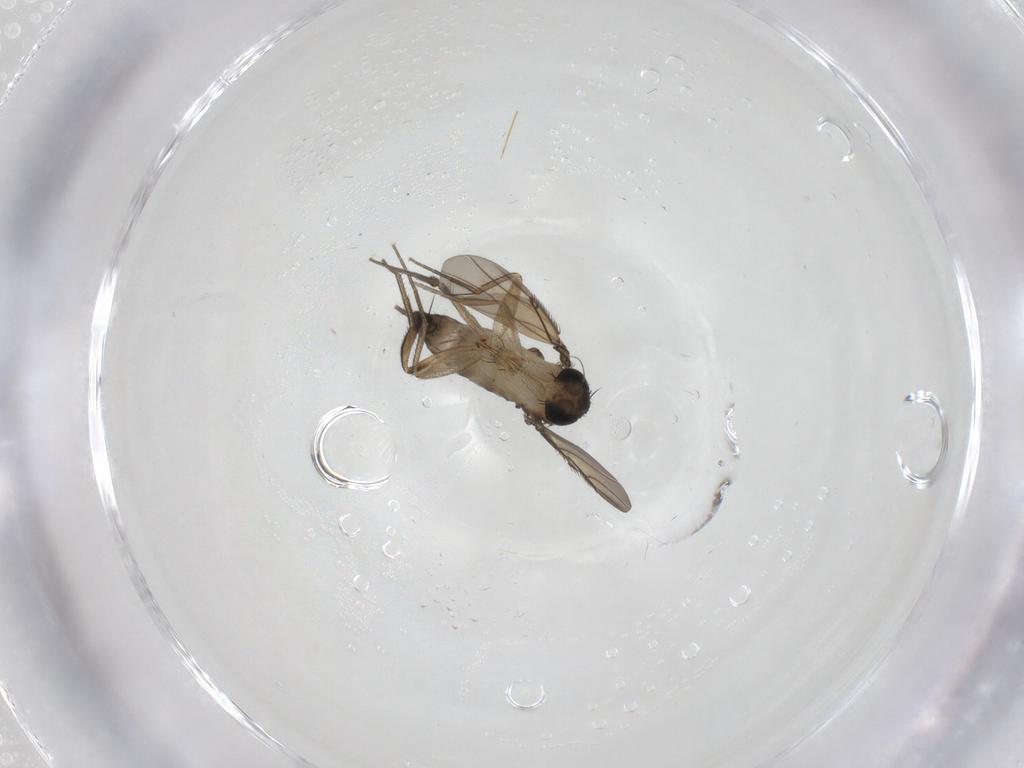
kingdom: Animalia
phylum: Arthropoda
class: Insecta
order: Diptera
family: Phoridae
